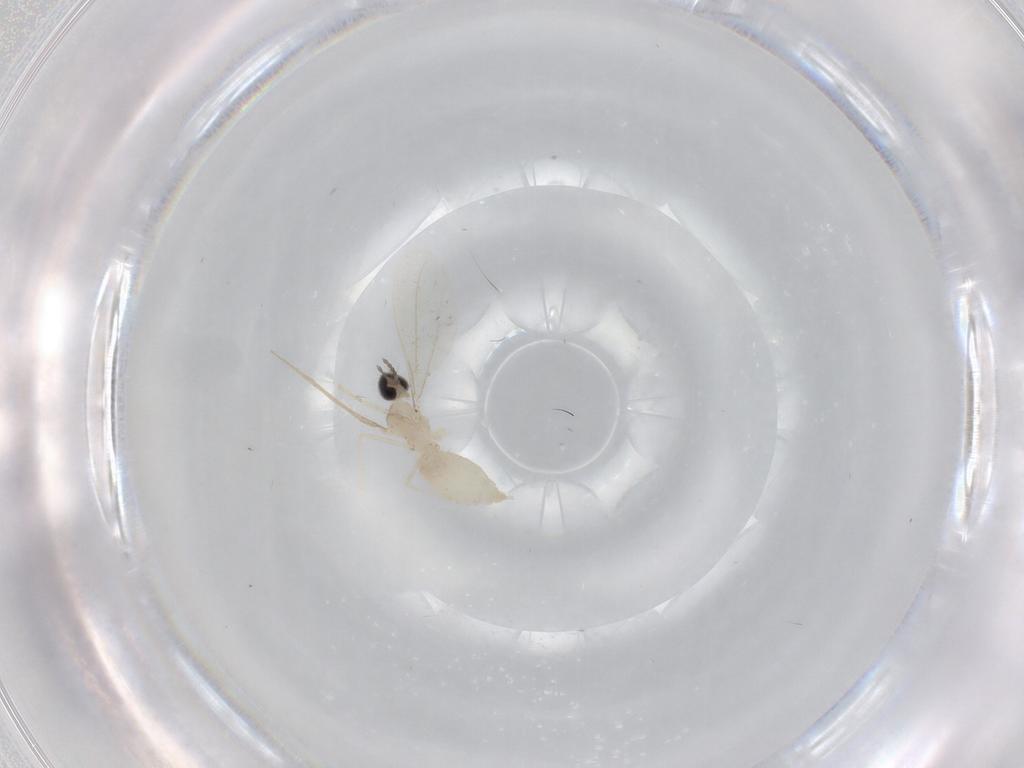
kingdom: Animalia
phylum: Arthropoda
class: Insecta
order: Diptera
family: Cecidomyiidae
